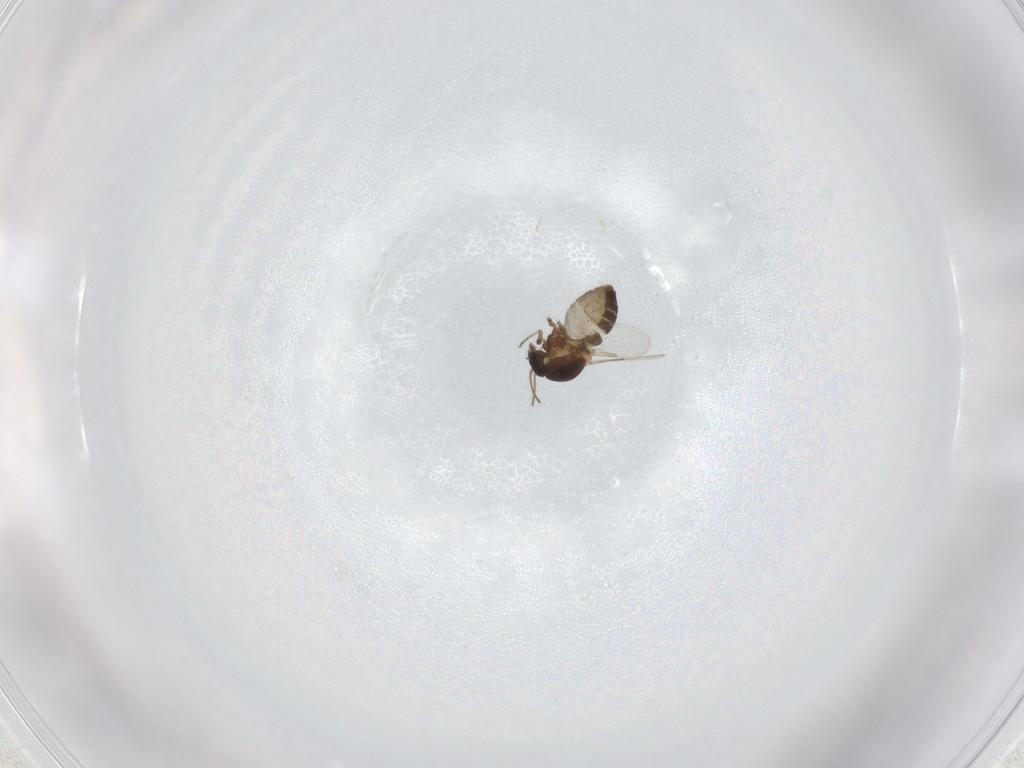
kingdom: Animalia
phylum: Arthropoda
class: Insecta
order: Diptera
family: Ceratopogonidae
